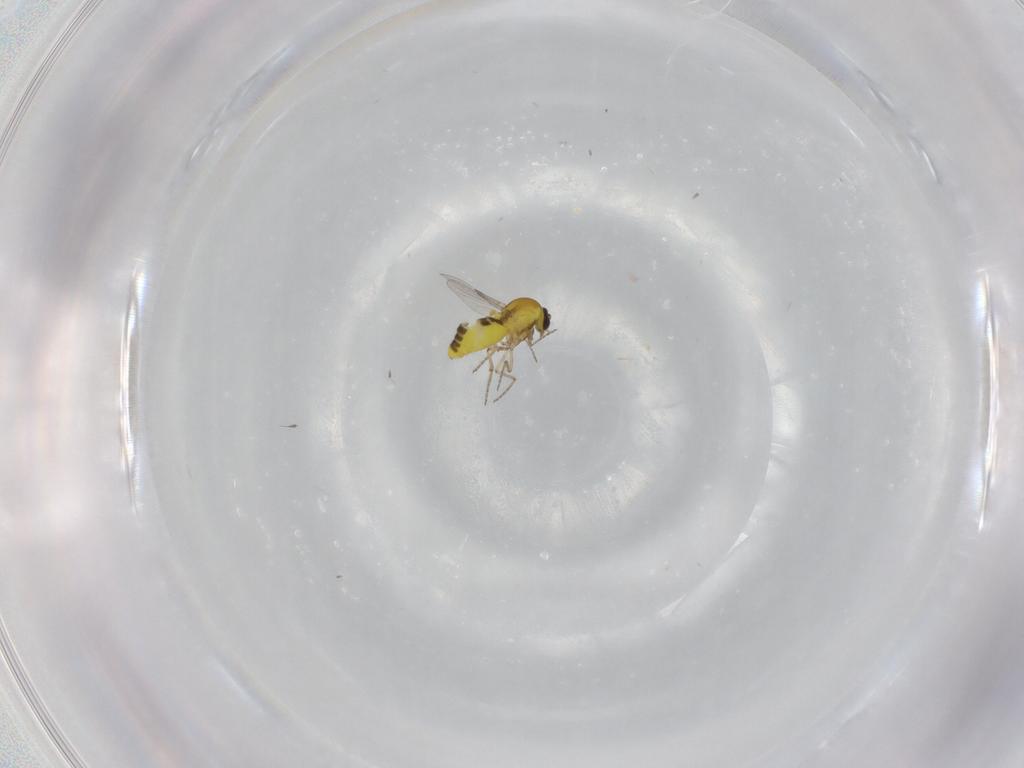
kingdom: Animalia
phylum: Arthropoda
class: Insecta
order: Diptera
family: Ceratopogonidae
